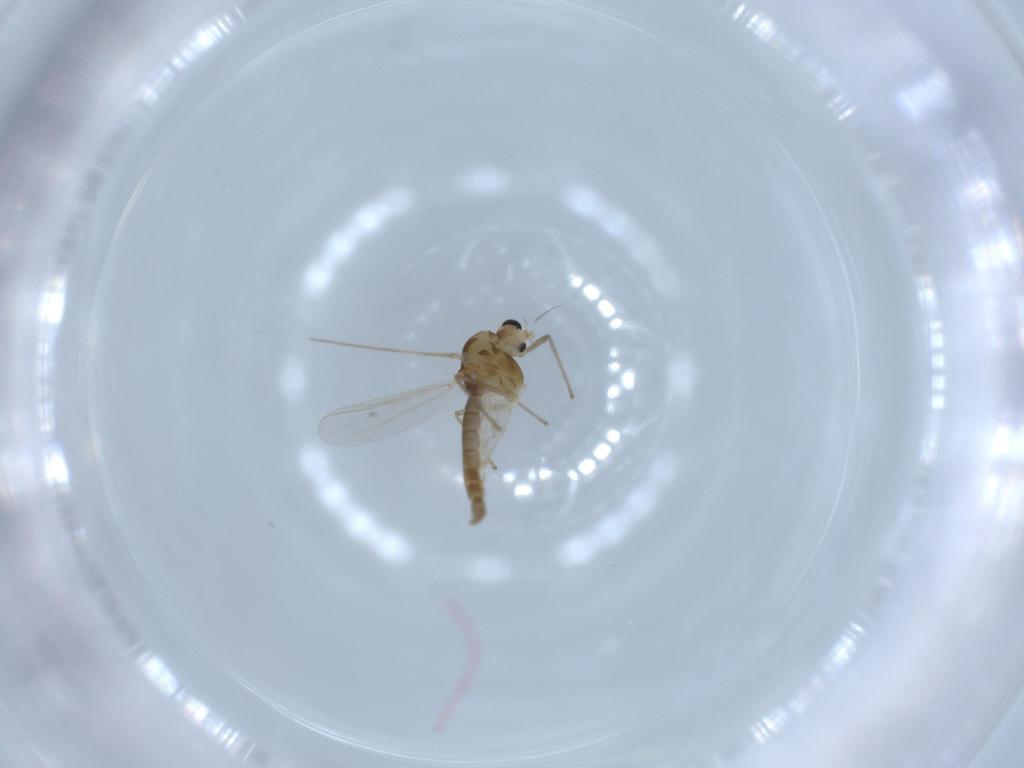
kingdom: Animalia
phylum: Arthropoda
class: Insecta
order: Diptera
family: Chironomidae
